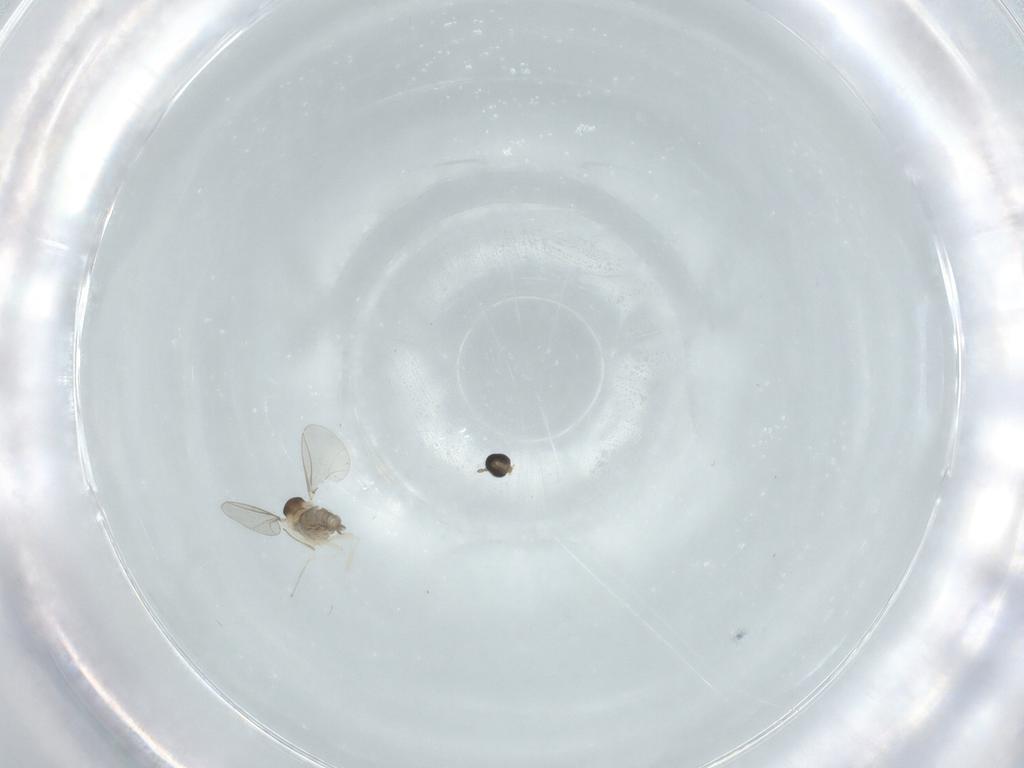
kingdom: Animalia
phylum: Arthropoda
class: Insecta
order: Diptera
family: Cecidomyiidae
